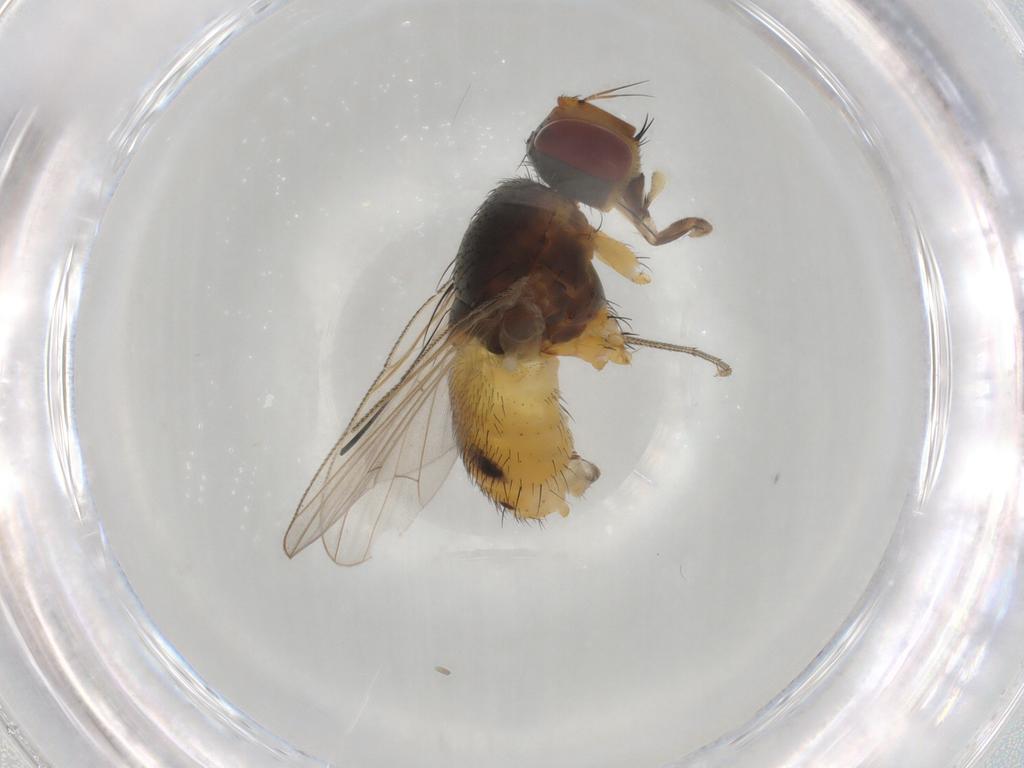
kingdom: Animalia
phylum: Arthropoda
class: Insecta
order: Diptera
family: Muscidae
